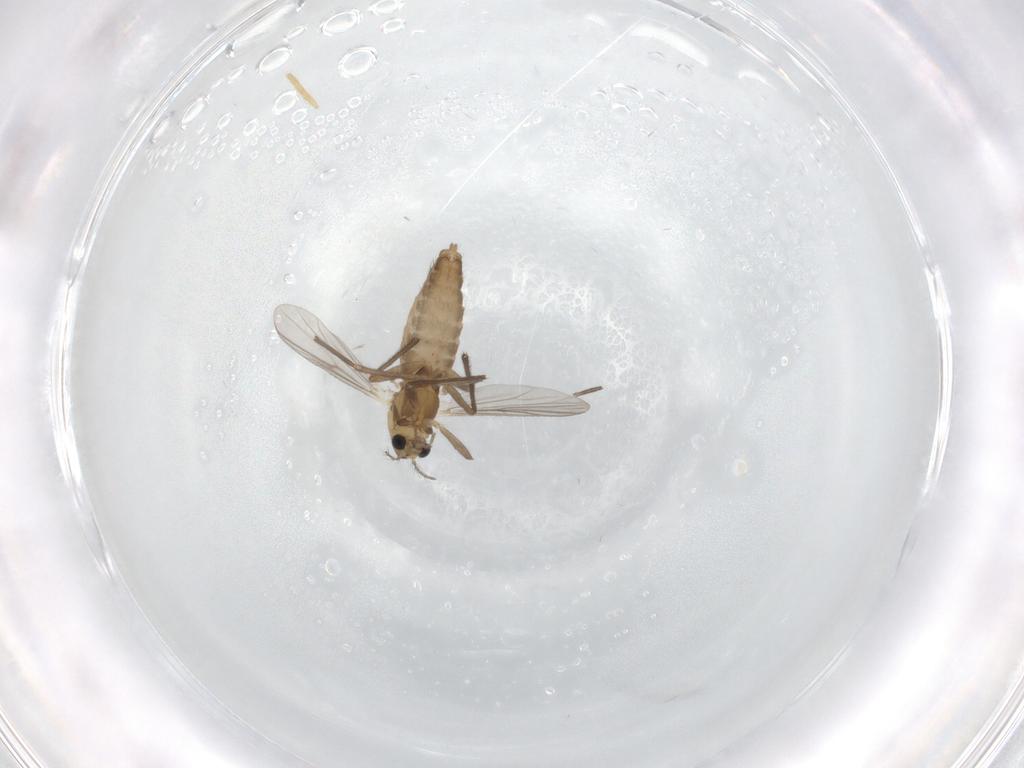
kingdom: Animalia
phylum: Arthropoda
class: Insecta
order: Diptera
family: Chironomidae
